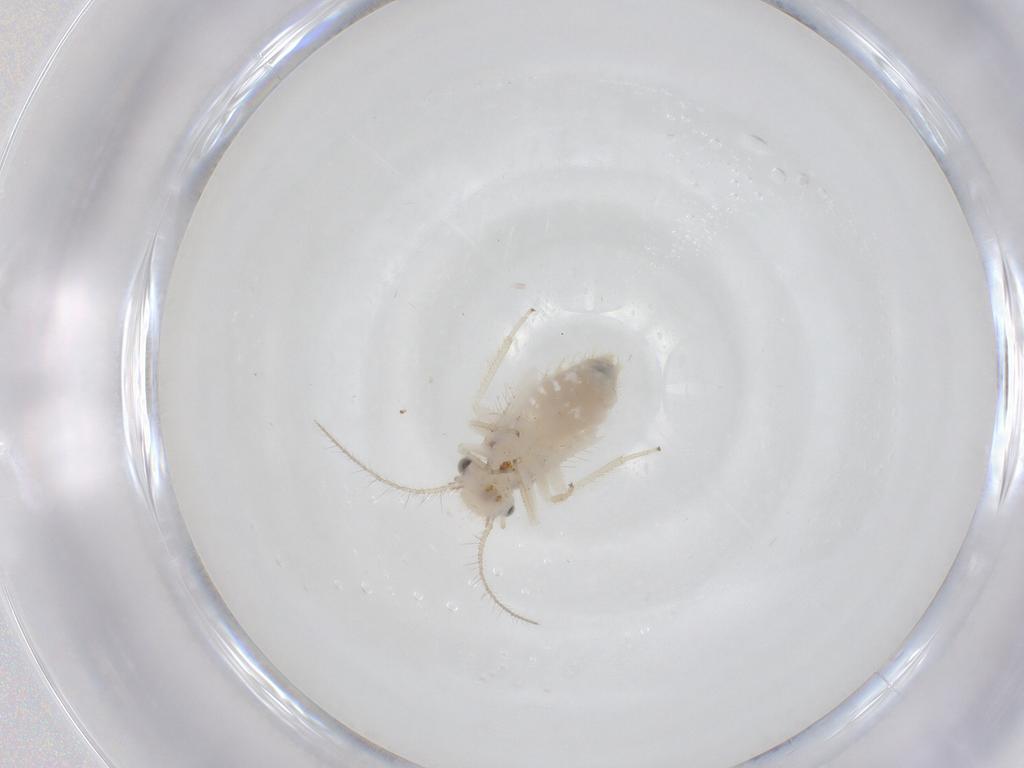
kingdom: Animalia
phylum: Arthropoda
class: Insecta
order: Psocodea
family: Pseudocaeciliidae
